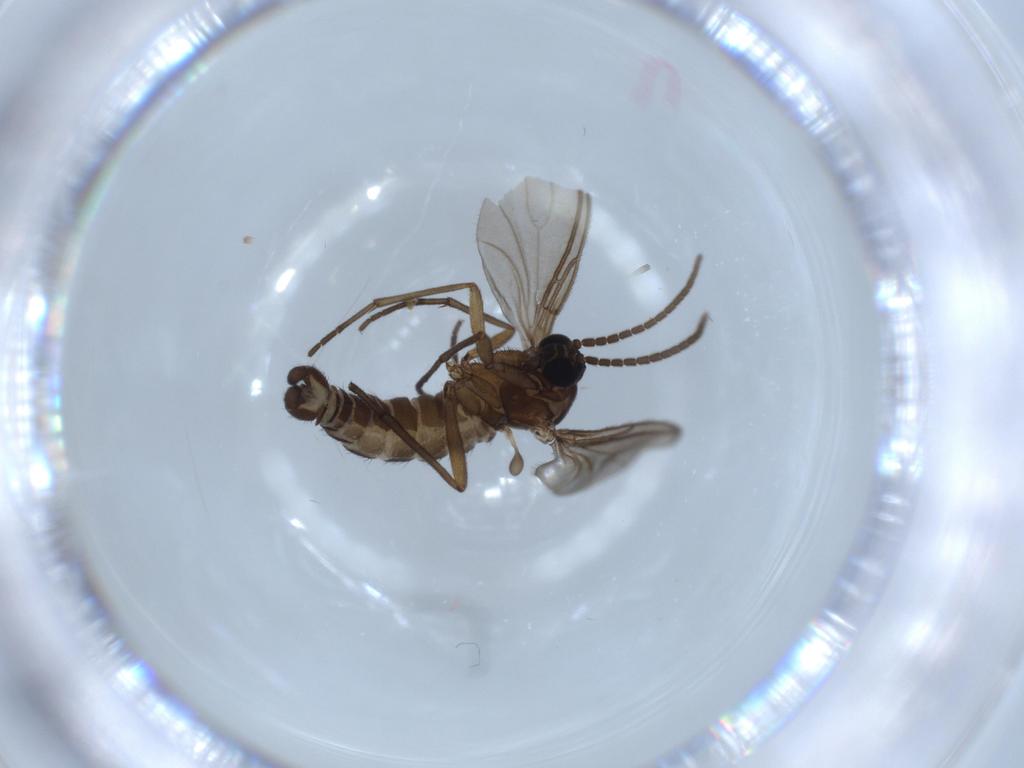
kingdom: Animalia
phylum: Arthropoda
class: Insecta
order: Diptera
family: Sciaridae
